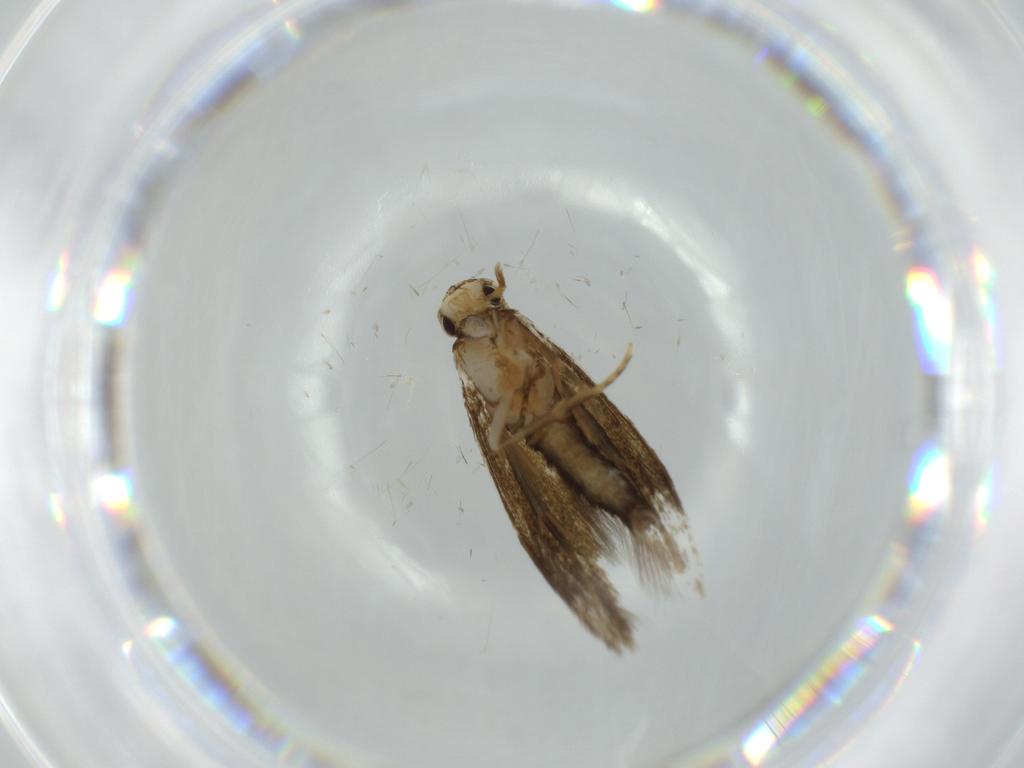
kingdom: Animalia
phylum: Arthropoda
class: Insecta
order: Lepidoptera
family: Tineidae
